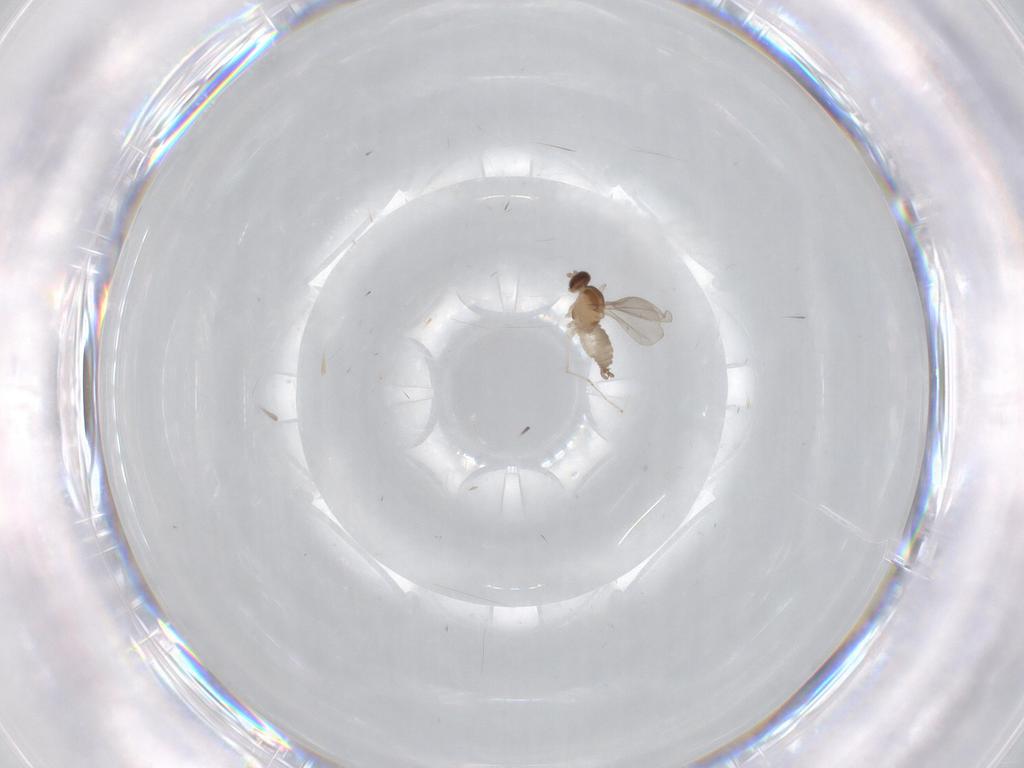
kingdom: Animalia
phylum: Arthropoda
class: Insecta
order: Diptera
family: Cecidomyiidae
